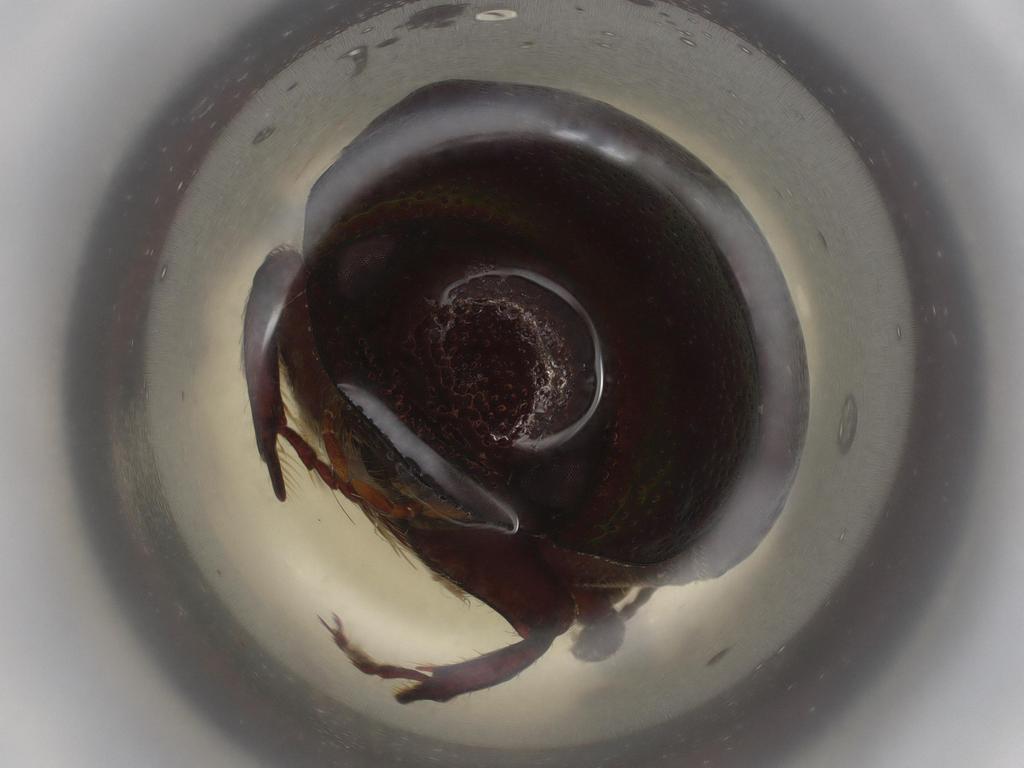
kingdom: Animalia
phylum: Arthropoda
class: Insecta
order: Coleoptera
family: Scarabaeidae
